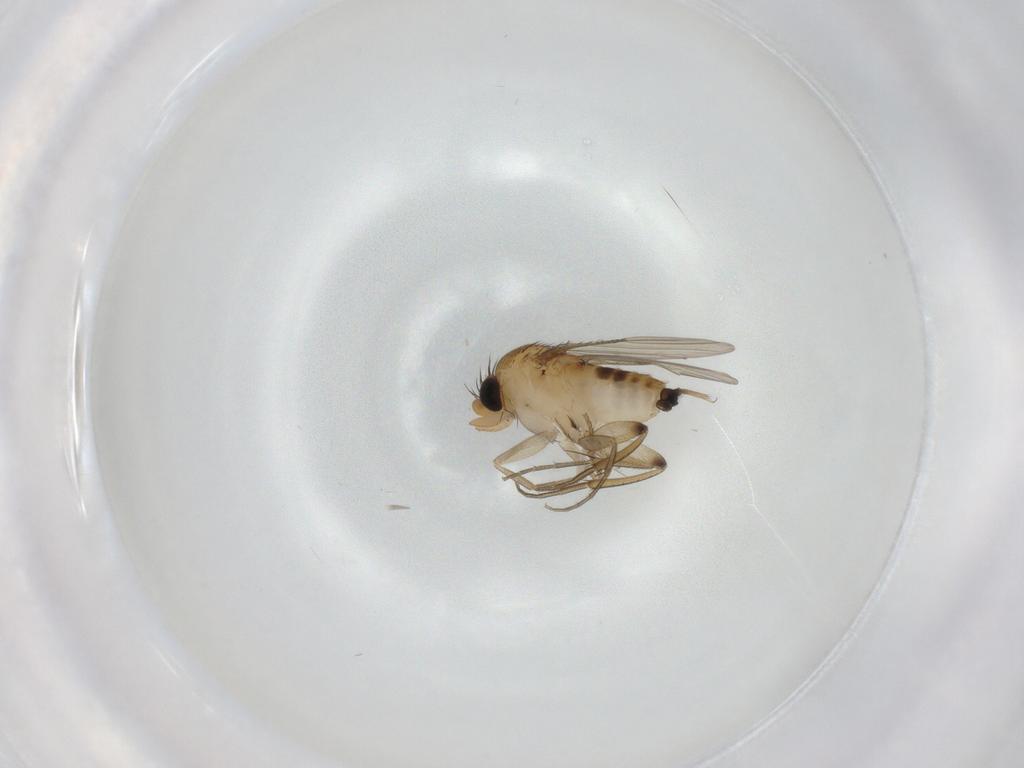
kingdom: Animalia
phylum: Arthropoda
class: Insecta
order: Diptera
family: Phoridae
